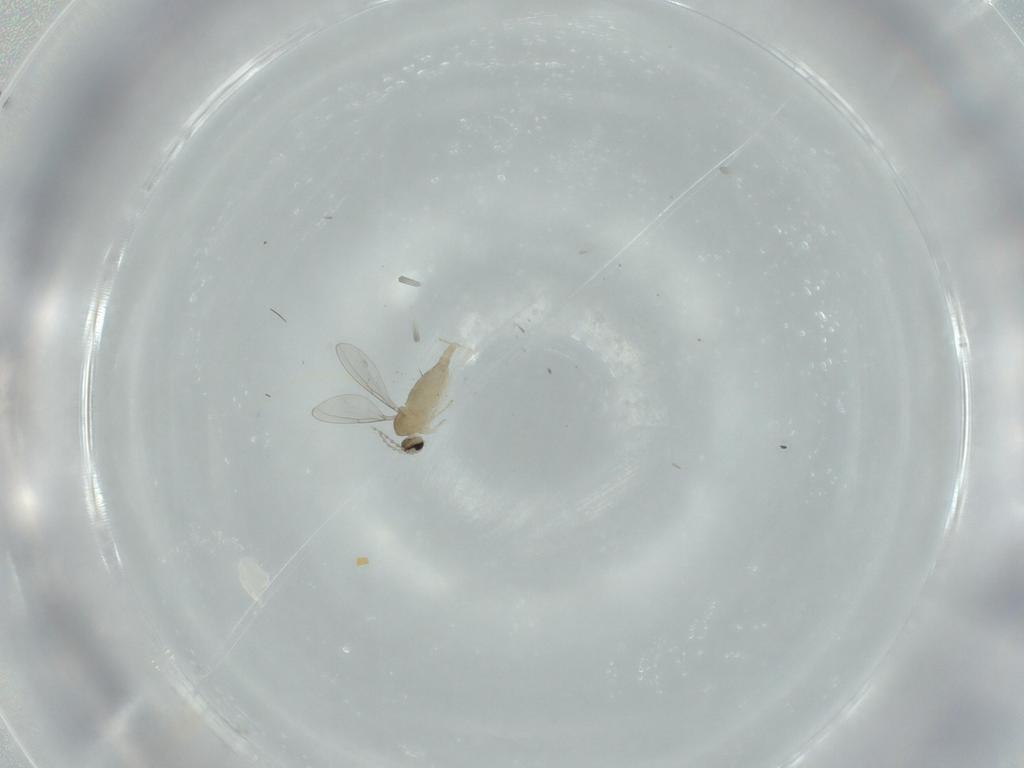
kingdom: Animalia
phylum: Arthropoda
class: Insecta
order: Diptera
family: Cecidomyiidae
